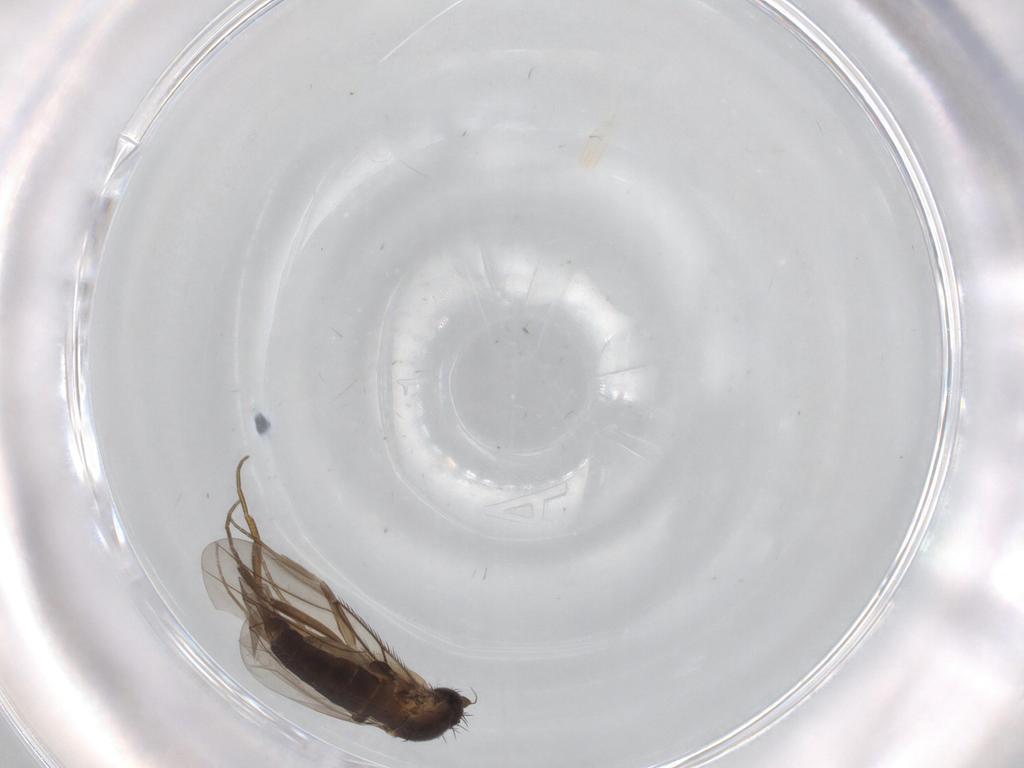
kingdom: Animalia
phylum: Arthropoda
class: Insecta
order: Diptera
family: Phoridae
